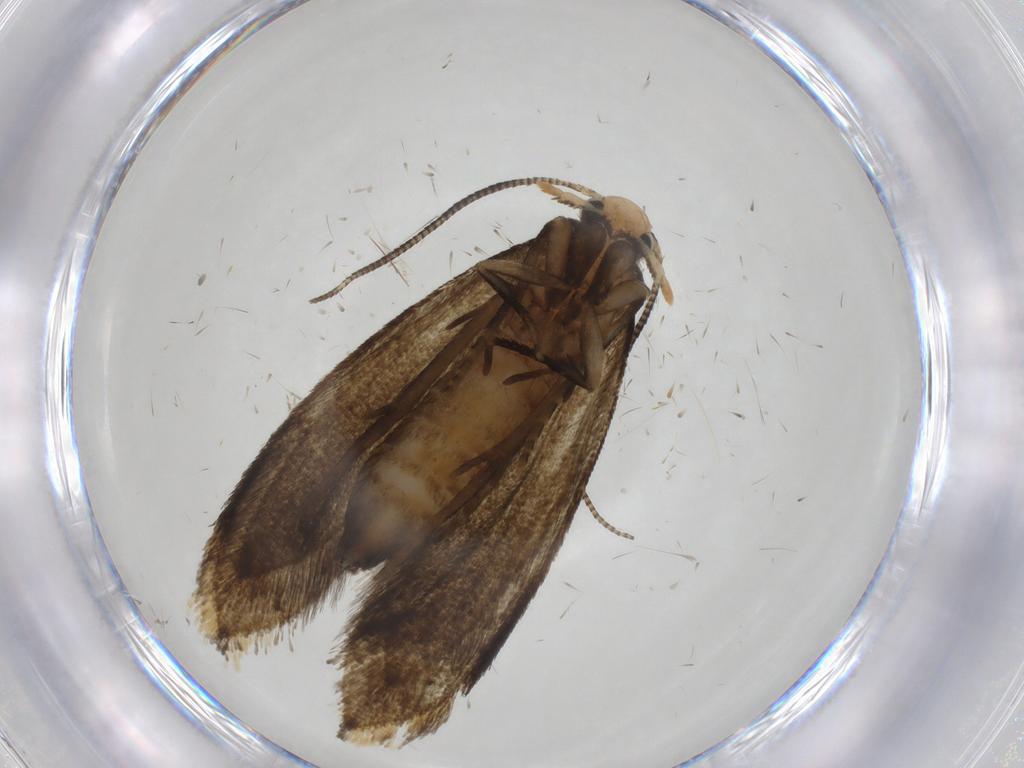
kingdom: Animalia
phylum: Arthropoda
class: Insecta
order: Lepidoptera
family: Pieridae
